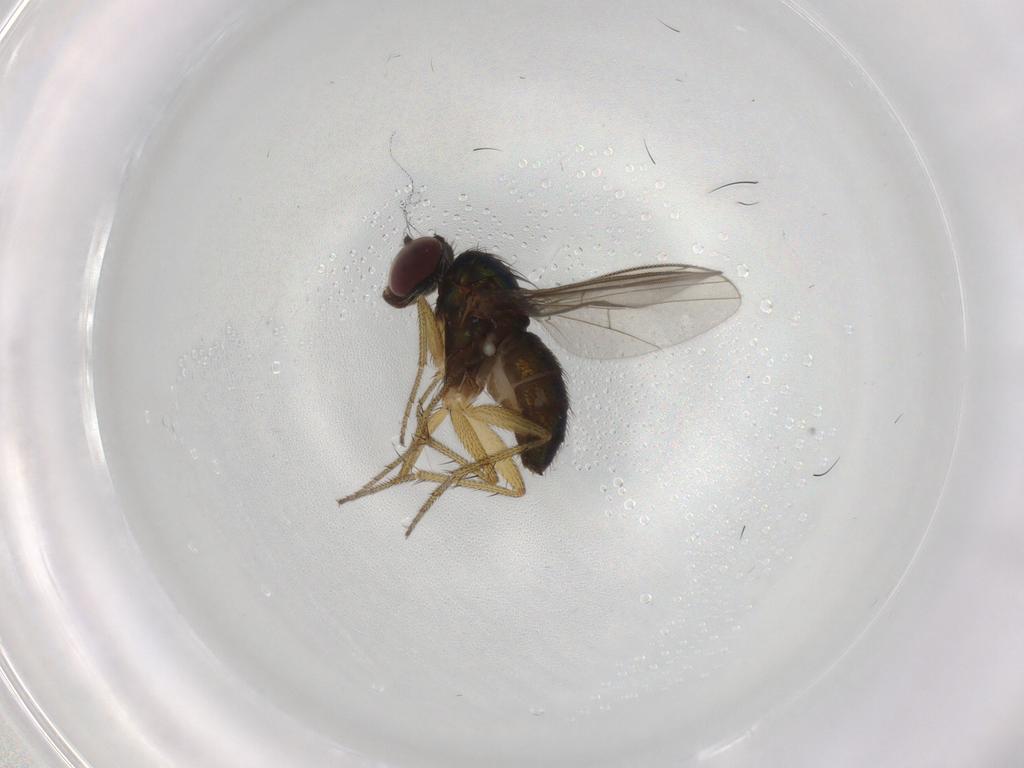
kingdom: Animalia
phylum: Arthropoda
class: Insecta
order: Diptera
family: Dolichopodidae
